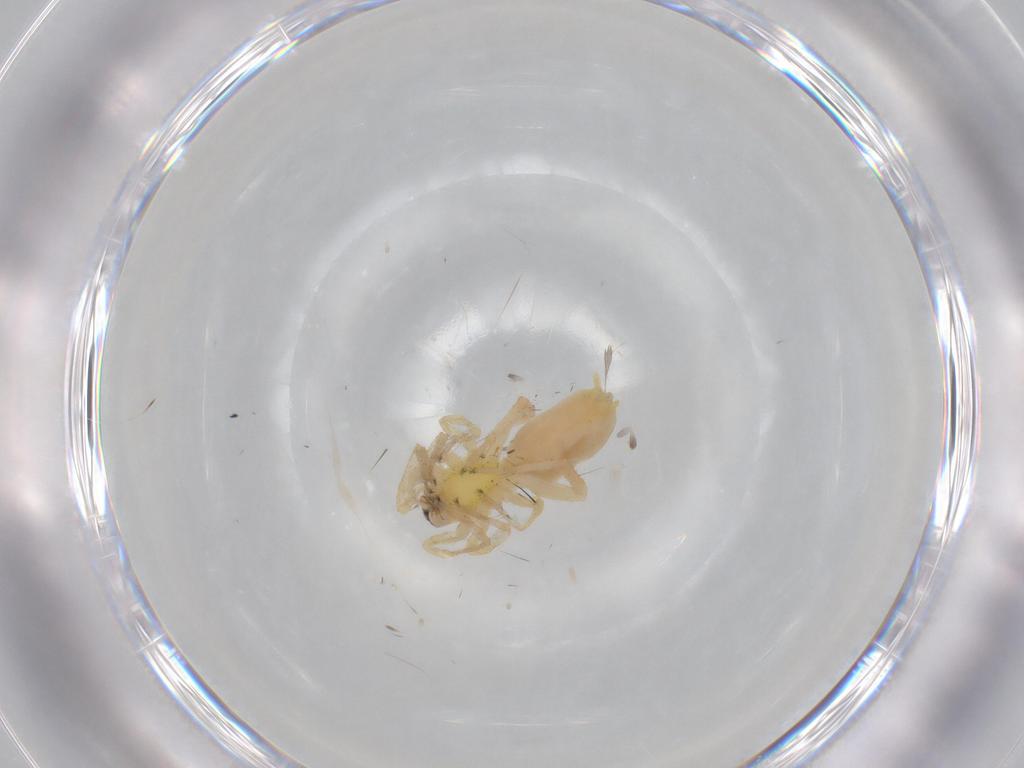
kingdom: Animalia
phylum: Arthropoda
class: Arachnida
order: Araneae
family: Anyphaenidae
